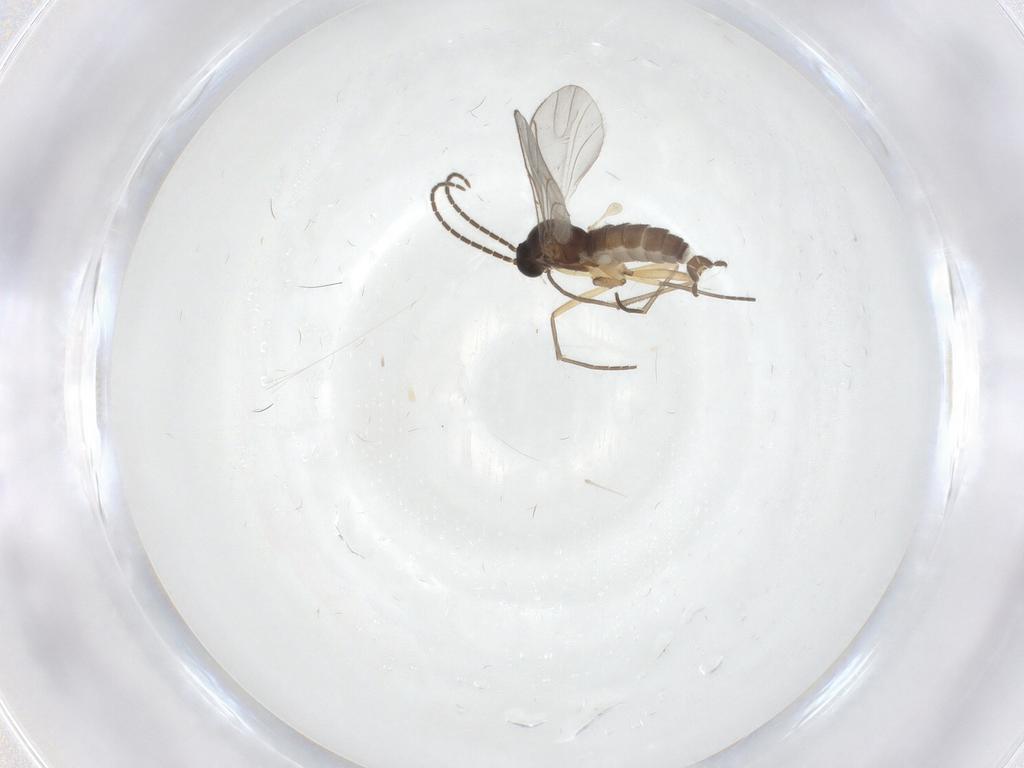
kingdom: Animalia
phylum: Arthropoda
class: Insecta
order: Diptera
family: Sciaridae
